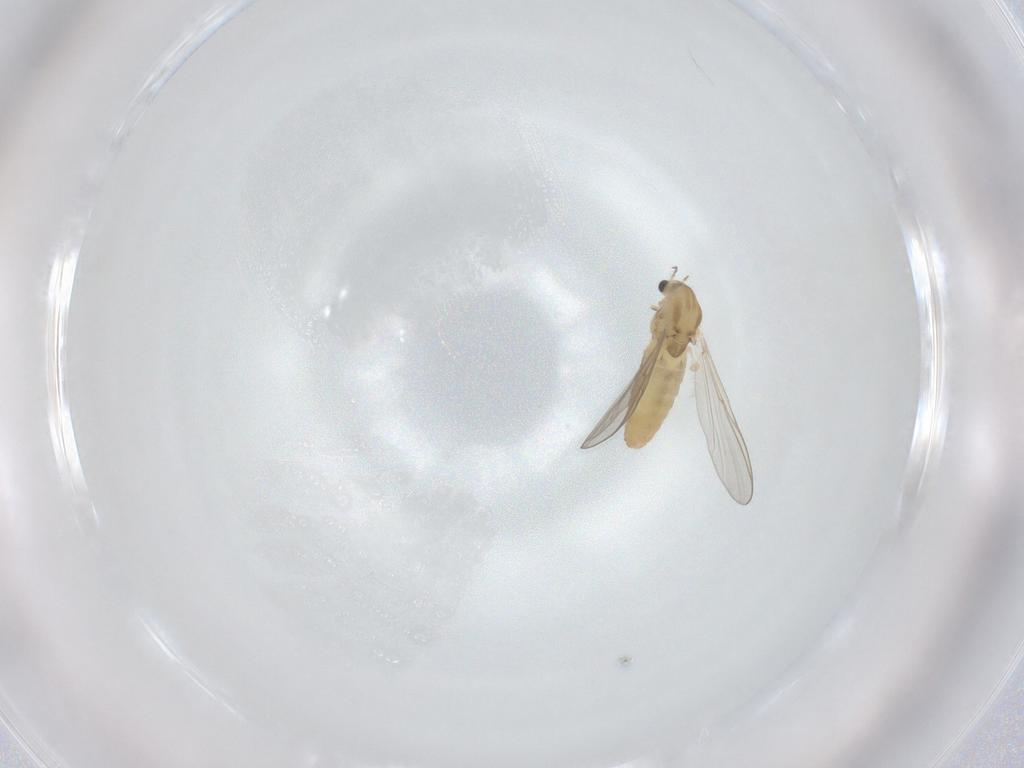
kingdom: Animalia
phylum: Arthropoda
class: Insecta
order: Diptera
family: Chironomidae
